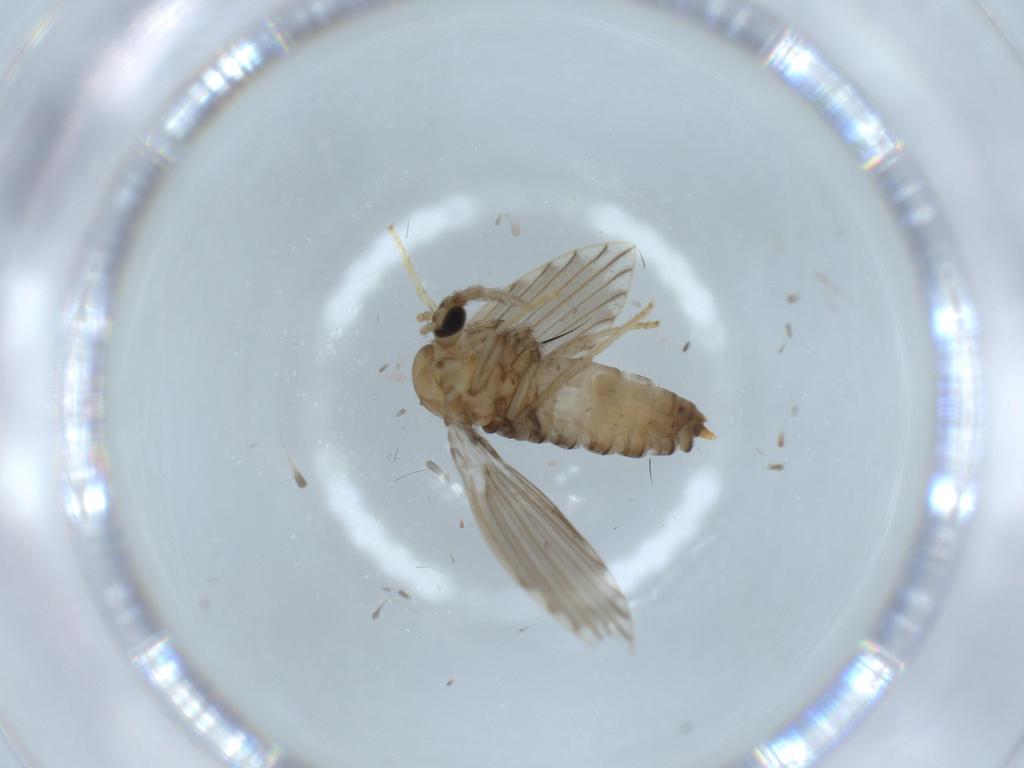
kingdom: Animalia
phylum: Arthropoda
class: Insecta
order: Diptera
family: Psychodidae
